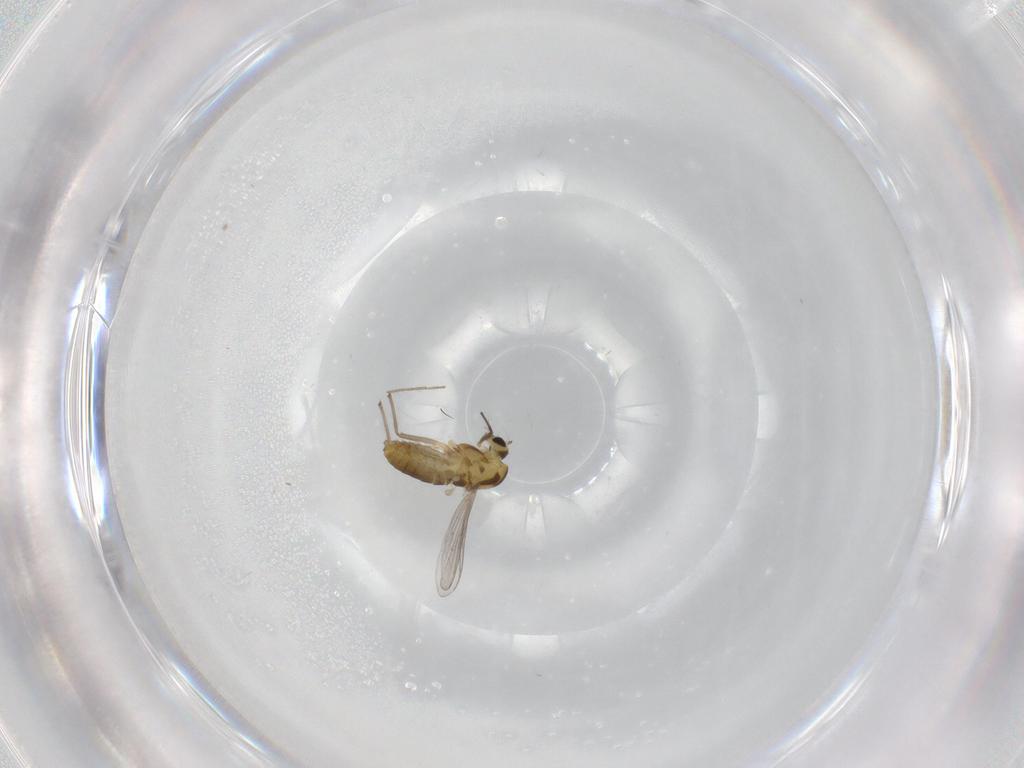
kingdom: Animalia
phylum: Arthropoda
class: Insecta
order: Diptera
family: Chironomidae
